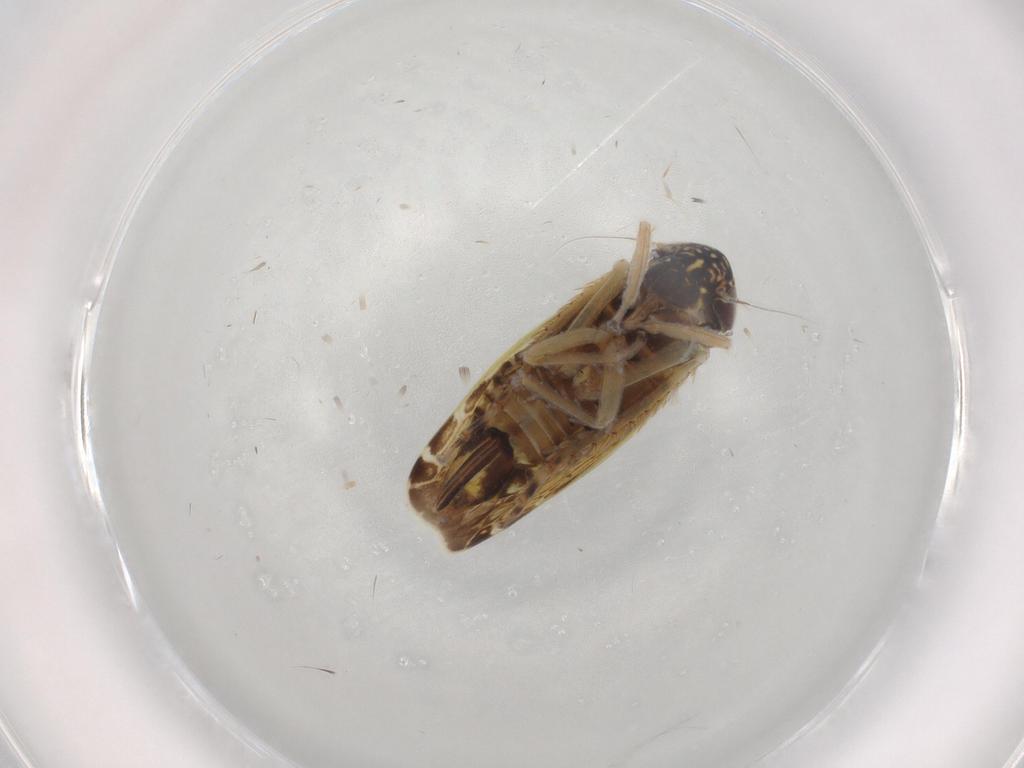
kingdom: Animalia
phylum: Arthropoda
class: Insecta
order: Hemiptera
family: Cicadellidae
